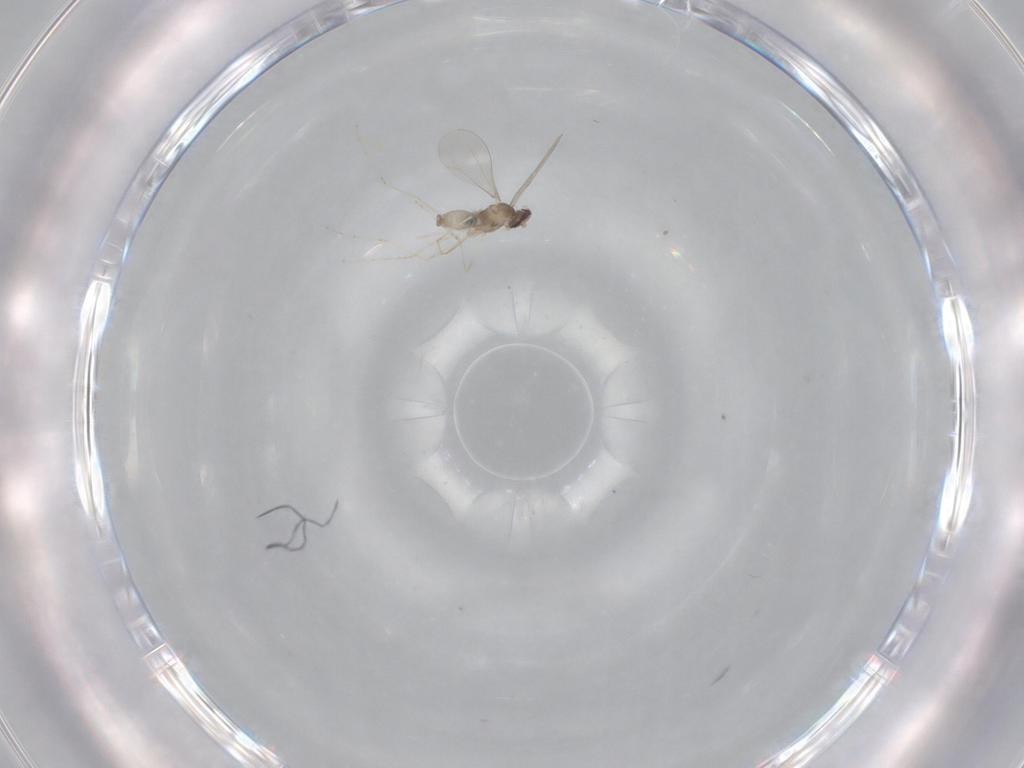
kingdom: Animalia
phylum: Arthropoda
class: Insecta
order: Diptera
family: Cecidomyiidae
